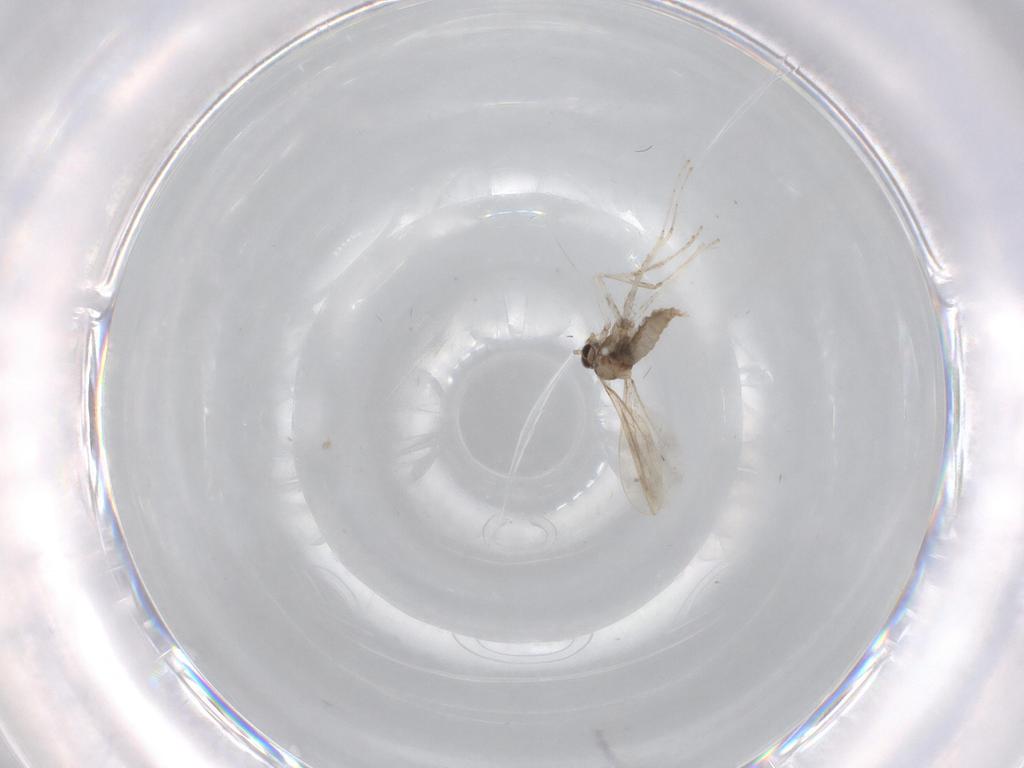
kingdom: Animalia
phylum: Arthropoda
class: Insecta
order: Diptera
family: Cecidomyiidae
